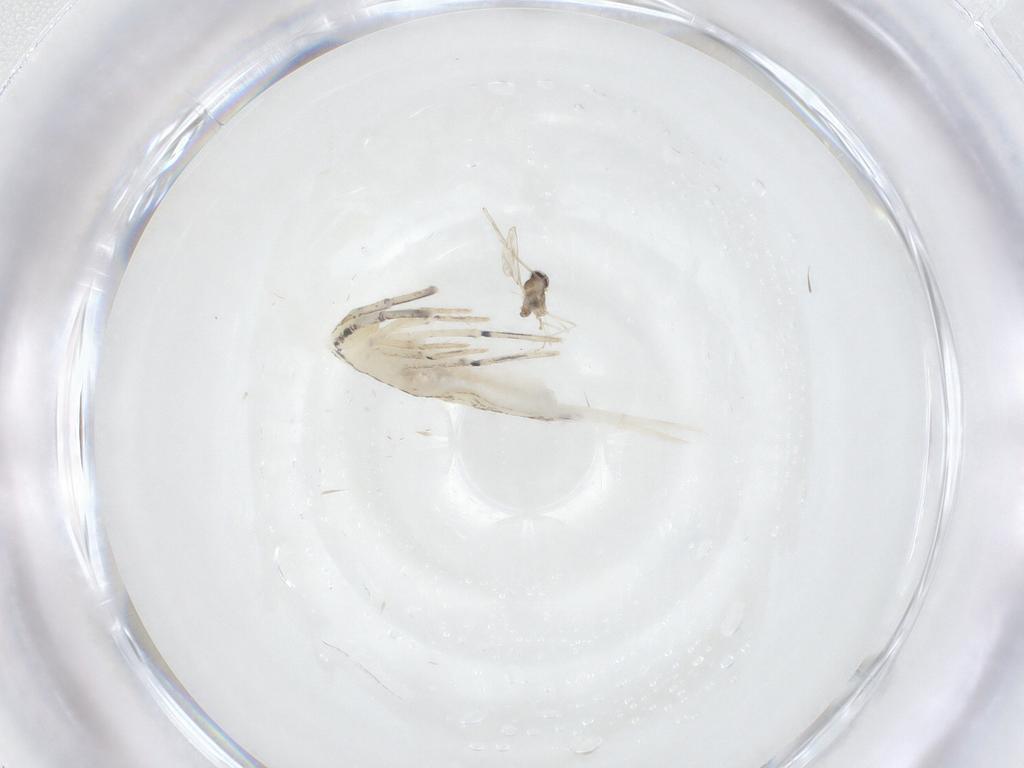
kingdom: Animalia
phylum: Arthropoda
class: Collembola
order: Entomobryomorpha
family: Entomobryidae
